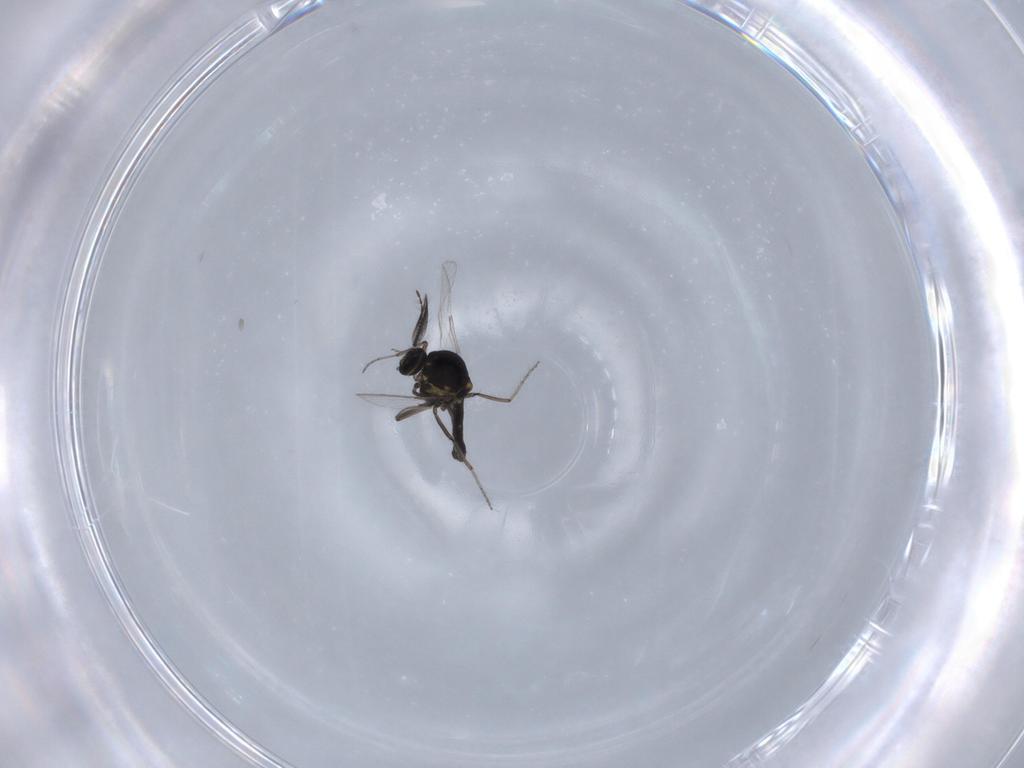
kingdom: Animalia
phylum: Arthropoda
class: Insecta
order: Diptera
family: Ceratopogonidae
